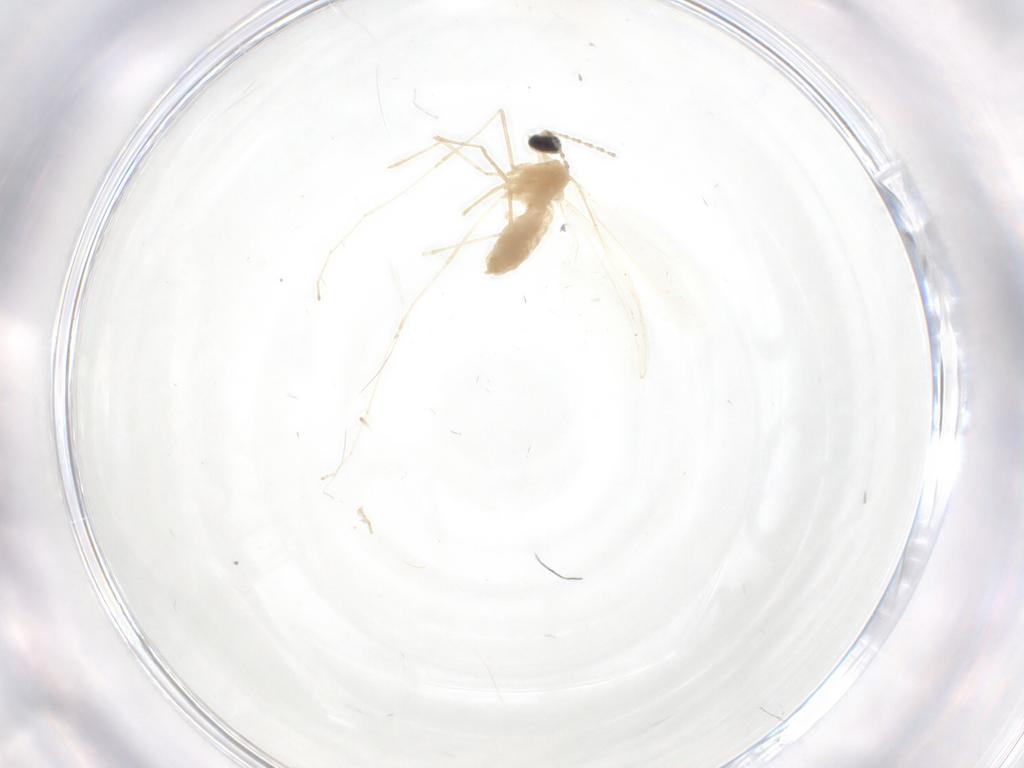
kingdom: Animalia
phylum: Arthropoda
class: Insecta
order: Diptera
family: Cecidomyiidae
